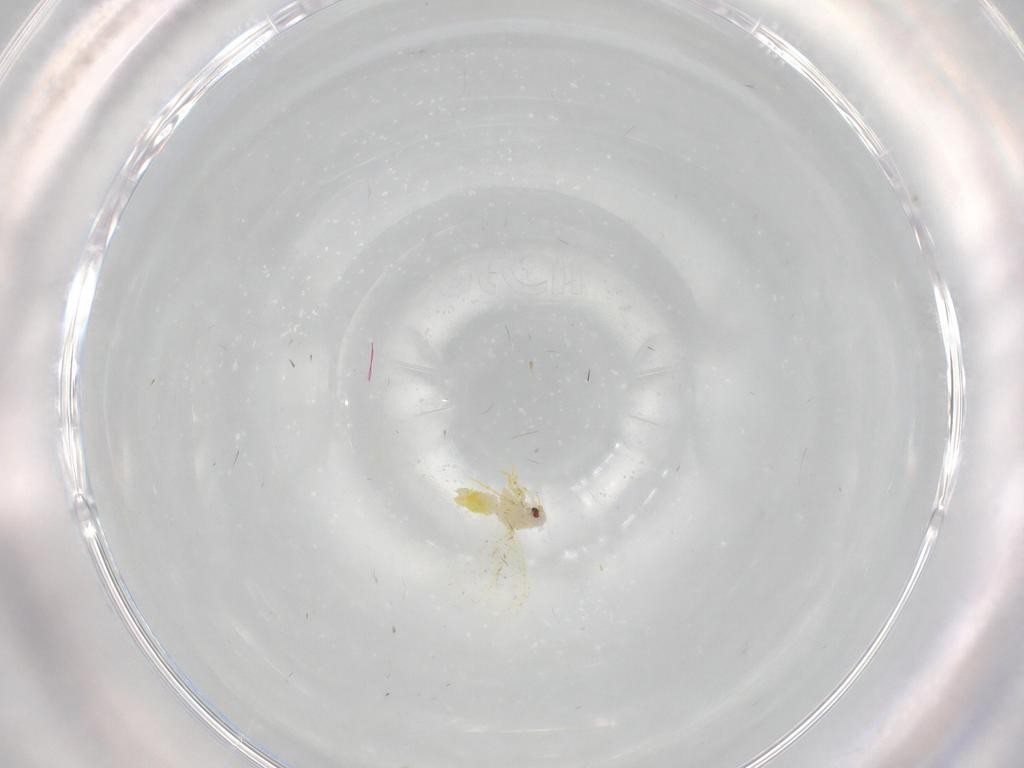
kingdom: Animalia
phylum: Arthropoda
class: Insecta
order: Hemiptera
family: Aleyrodidae
